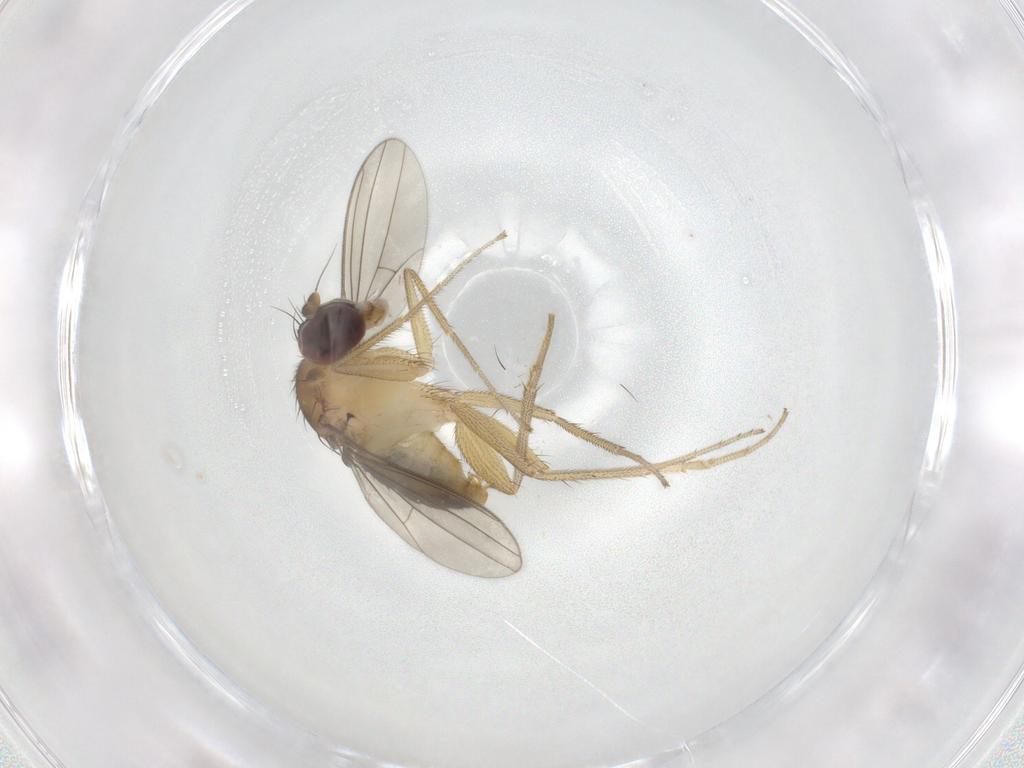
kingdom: Animalia
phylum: Arthropoda
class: Insecta
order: Diptera
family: Dolichopodidae
